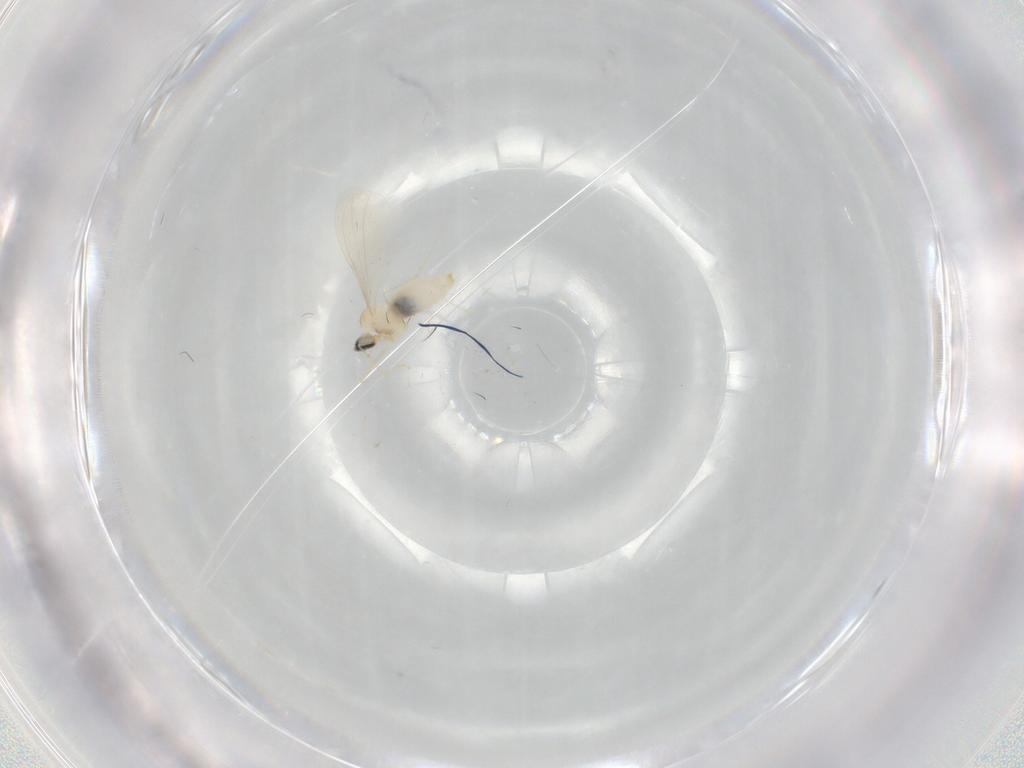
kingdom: Animalia
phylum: Arthropoda
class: Insecta
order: Diptera
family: Cecidomyiidae
